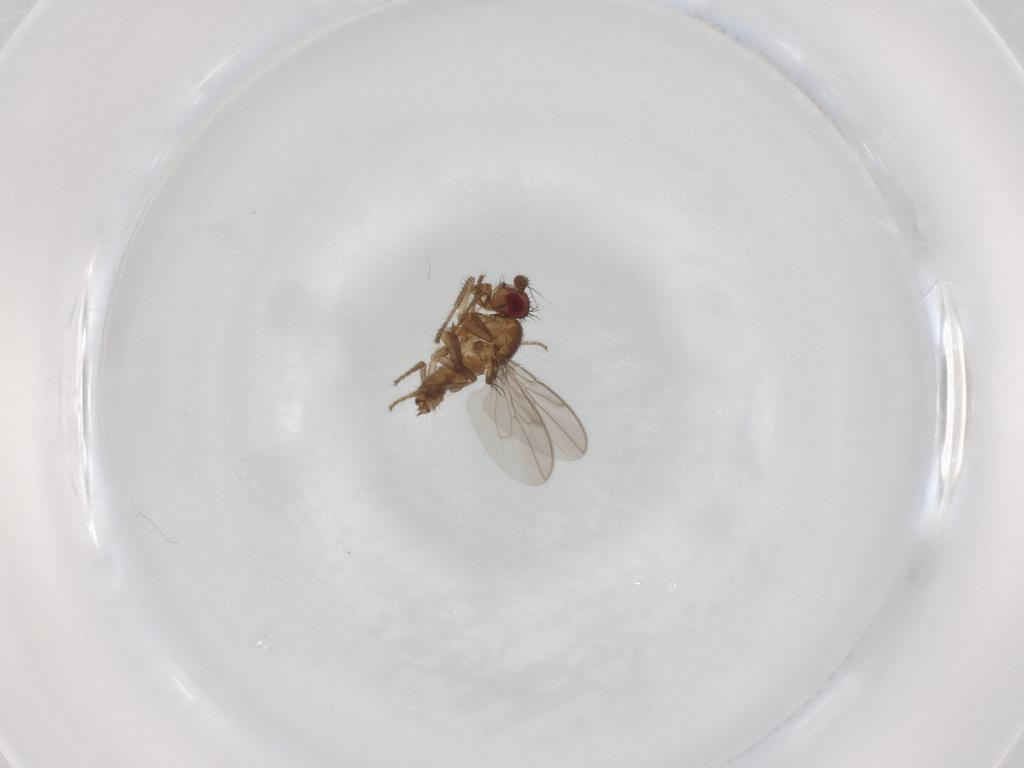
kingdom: Animalia
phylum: Arthropoda
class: Insecta
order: Diptera
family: Sphaeroceridae
